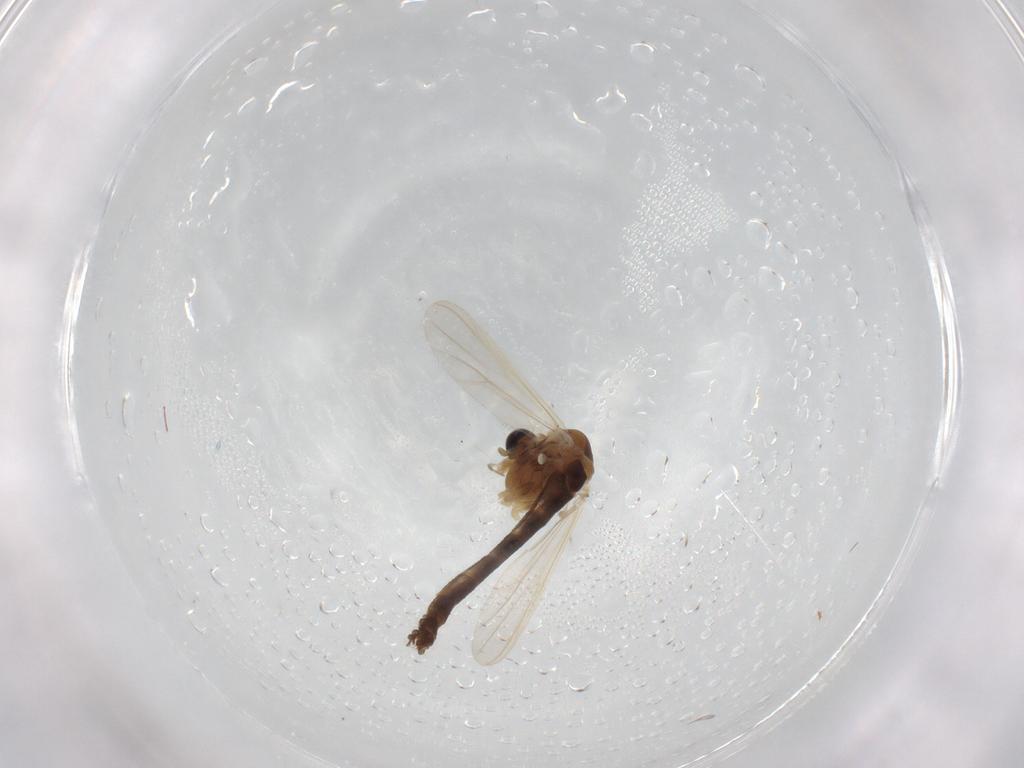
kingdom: Animalia
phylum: Arthropoda
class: Insecta
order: Diptera
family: Chironomidae
